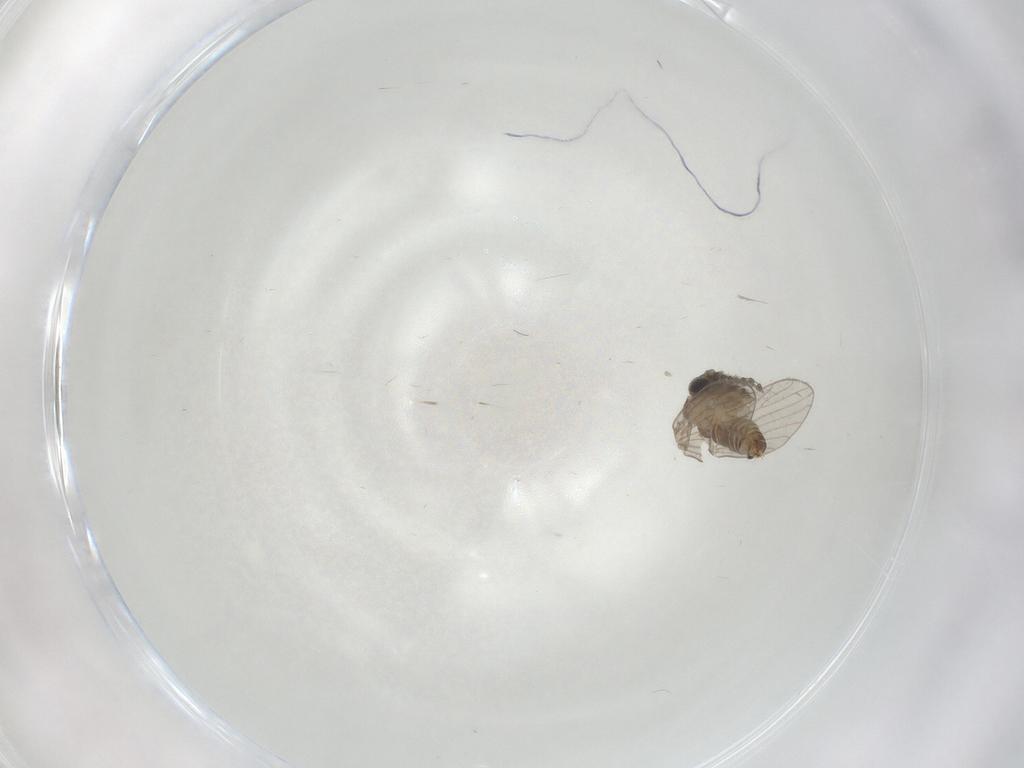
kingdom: Animalia
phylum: Arthropoda
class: Insecta
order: Diptera
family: Psychodidae
